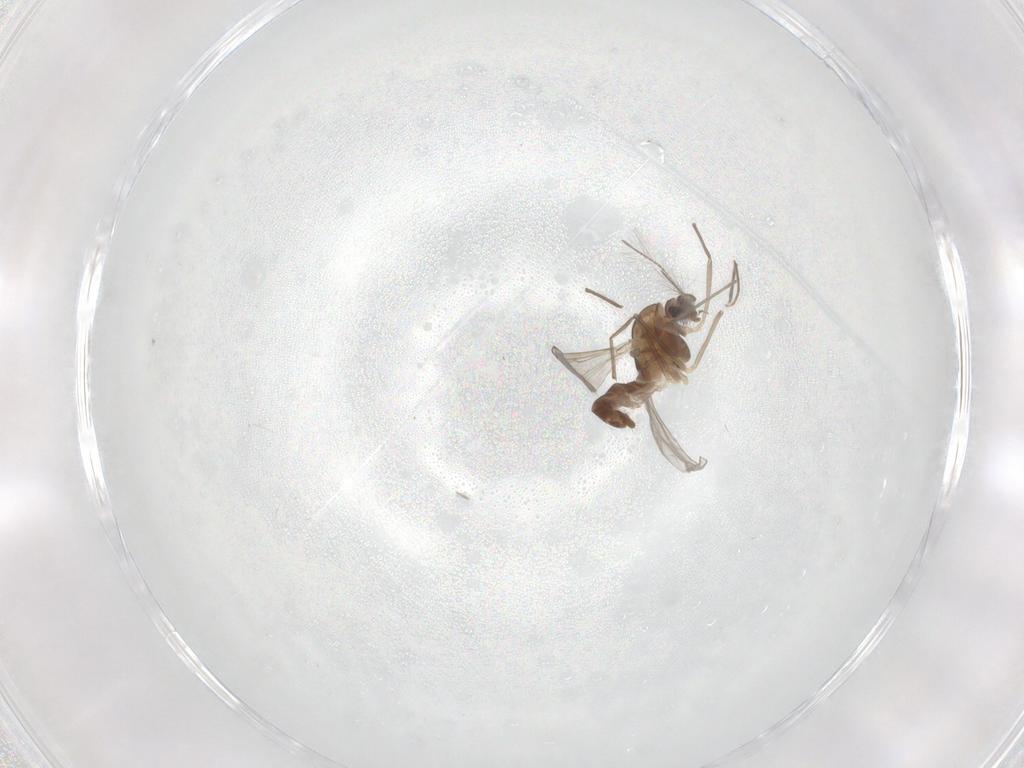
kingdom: Animalia
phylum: Arthropoda
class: Insecta
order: Diptera
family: Chironomidae
